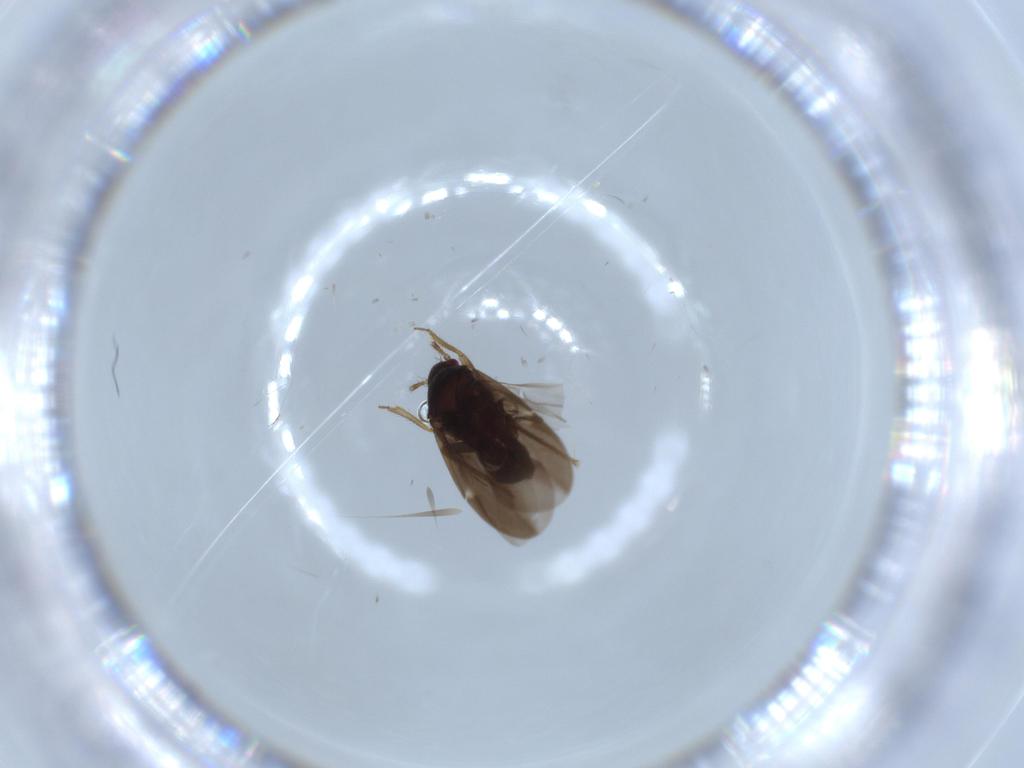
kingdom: Animalia
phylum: Arthropoda
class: Insecta
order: Hemiptera
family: Ceratocombidae
